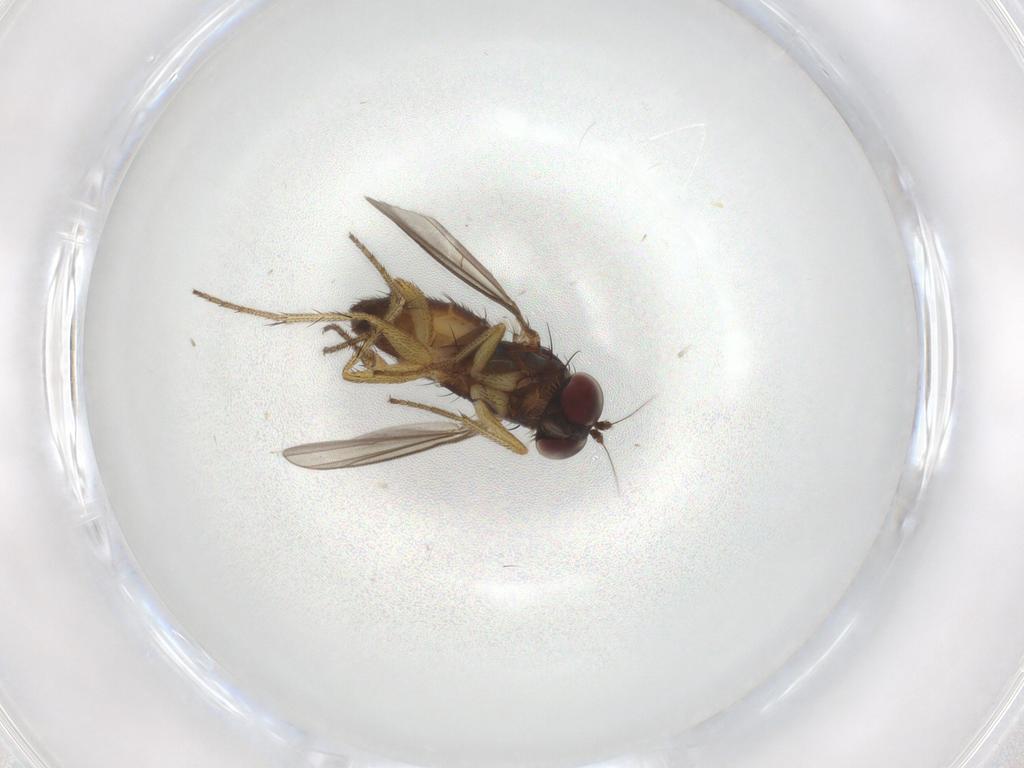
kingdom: Animalia
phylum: Arthropoda
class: Insecta
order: Diptera
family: Dolichopodidae
